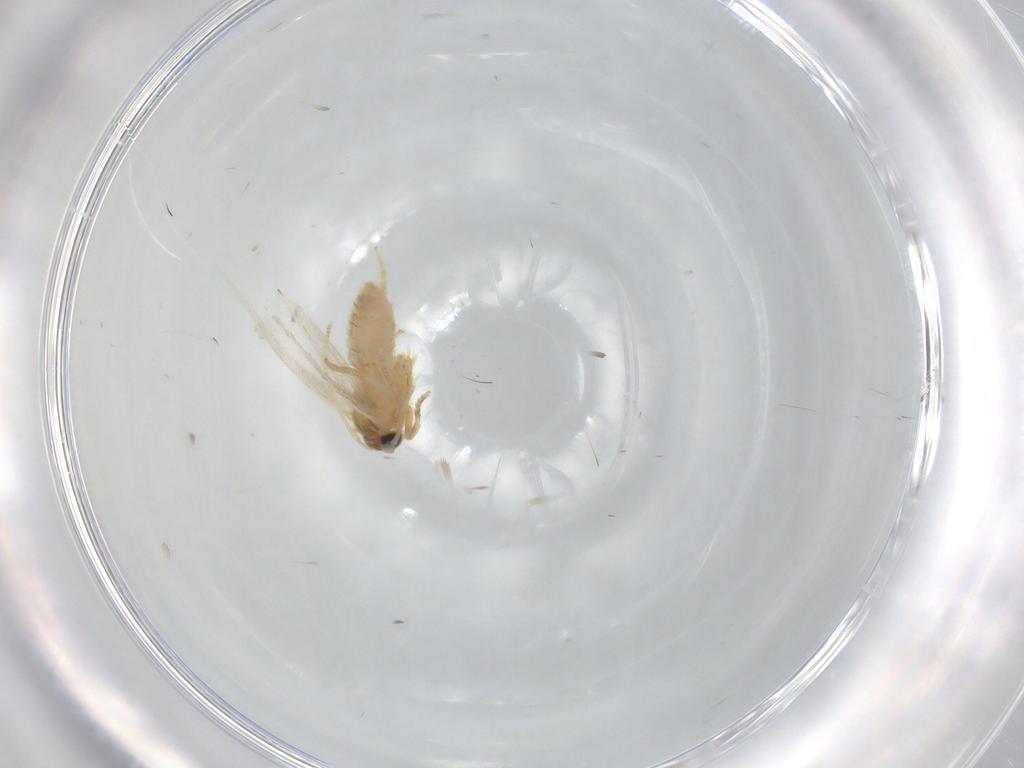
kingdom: Animalia
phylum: Arthropoda
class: Insecta
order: Lepidoptera
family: Nepticulidae
